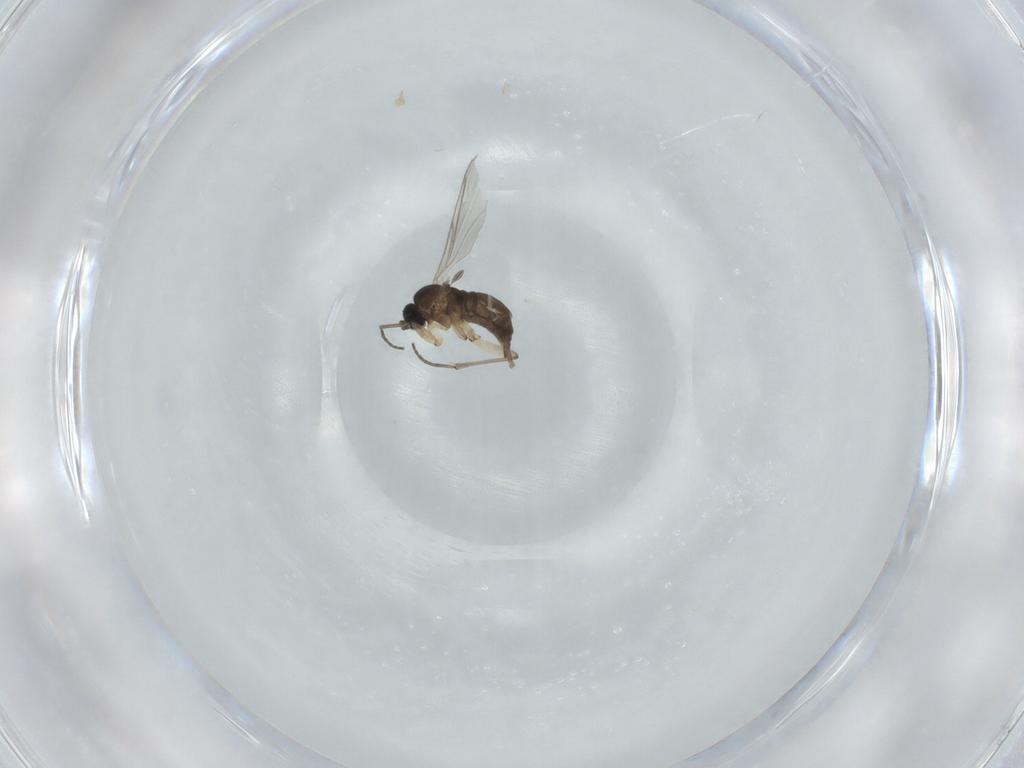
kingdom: Animalia
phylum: Arthropoda
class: Insecta
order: Diptera
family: Sciaridae
